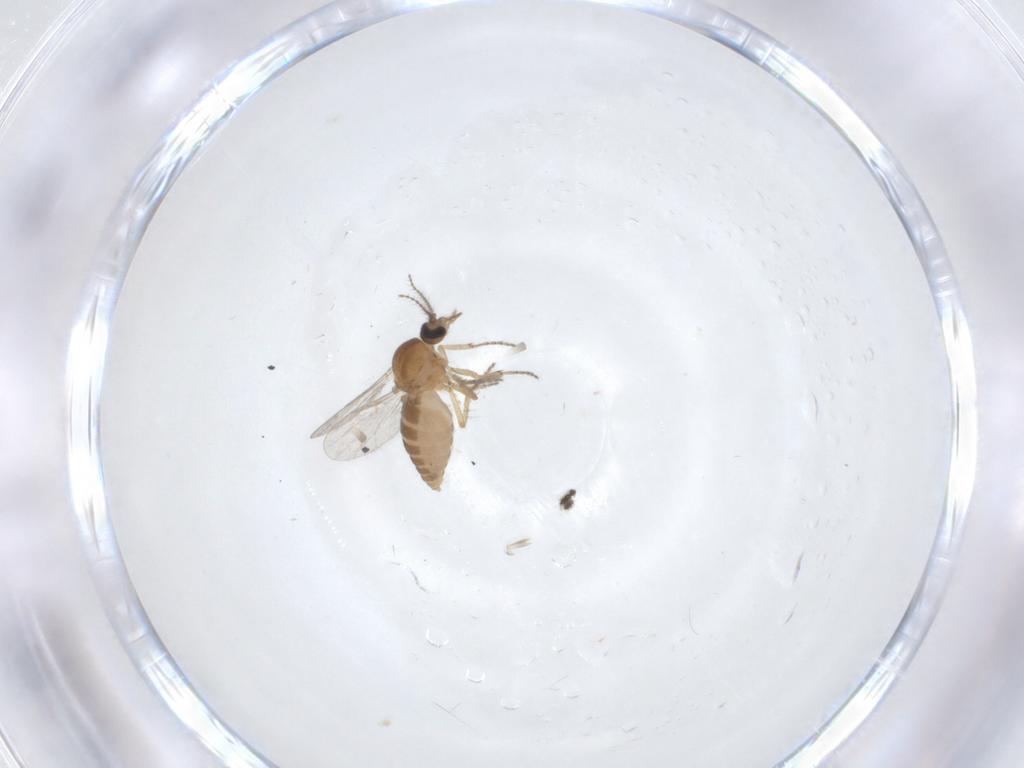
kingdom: Animalia
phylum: Arthropoda
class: Insecta
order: Diptera
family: Ceratopogonidae
